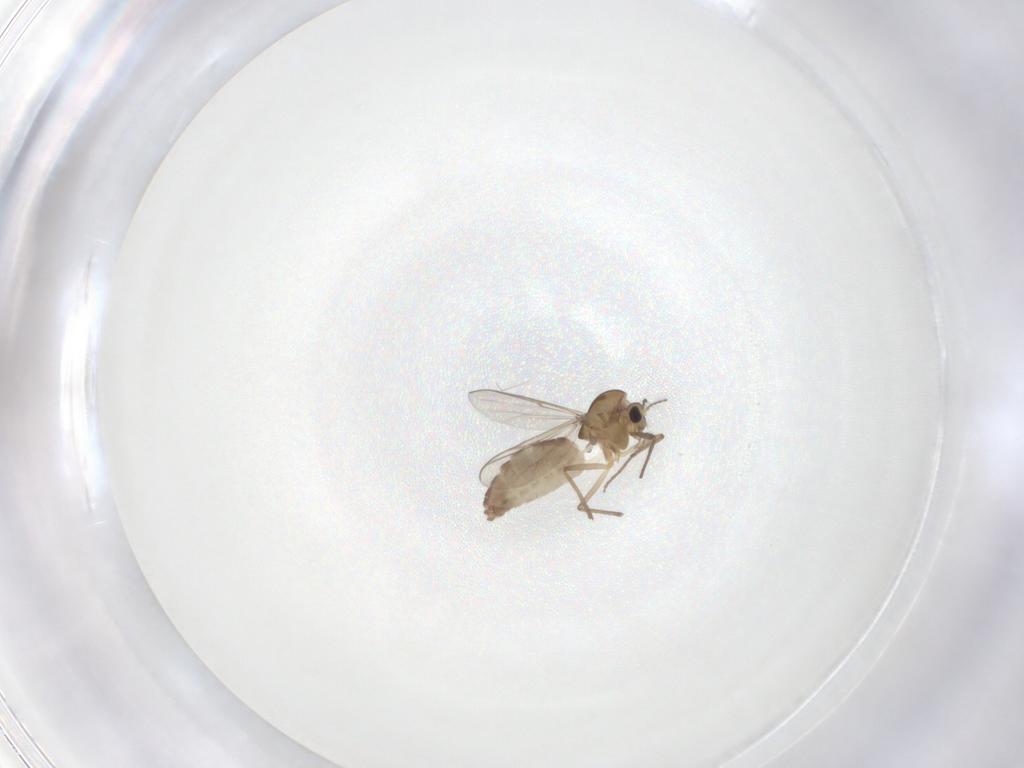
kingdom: Animalia
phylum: Arthropoda
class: Insecta
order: Diptera
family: Chironomidae
